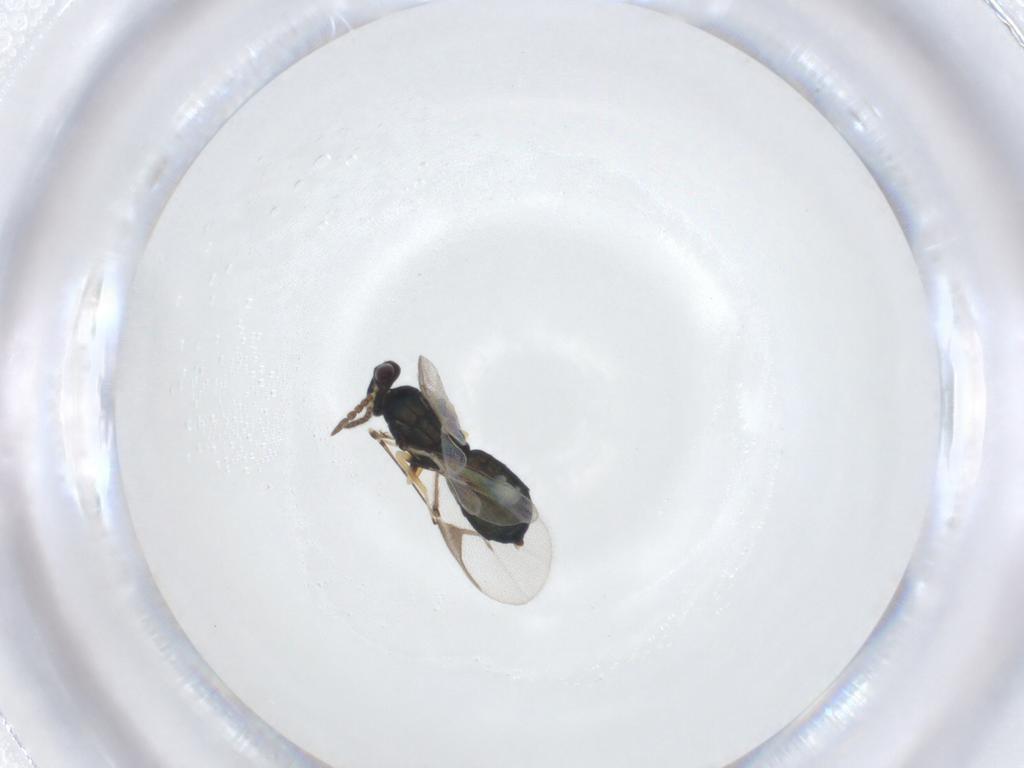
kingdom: Animalia
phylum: Arthropoda
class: Insecta
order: Hymenoptera
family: Eulophidae
